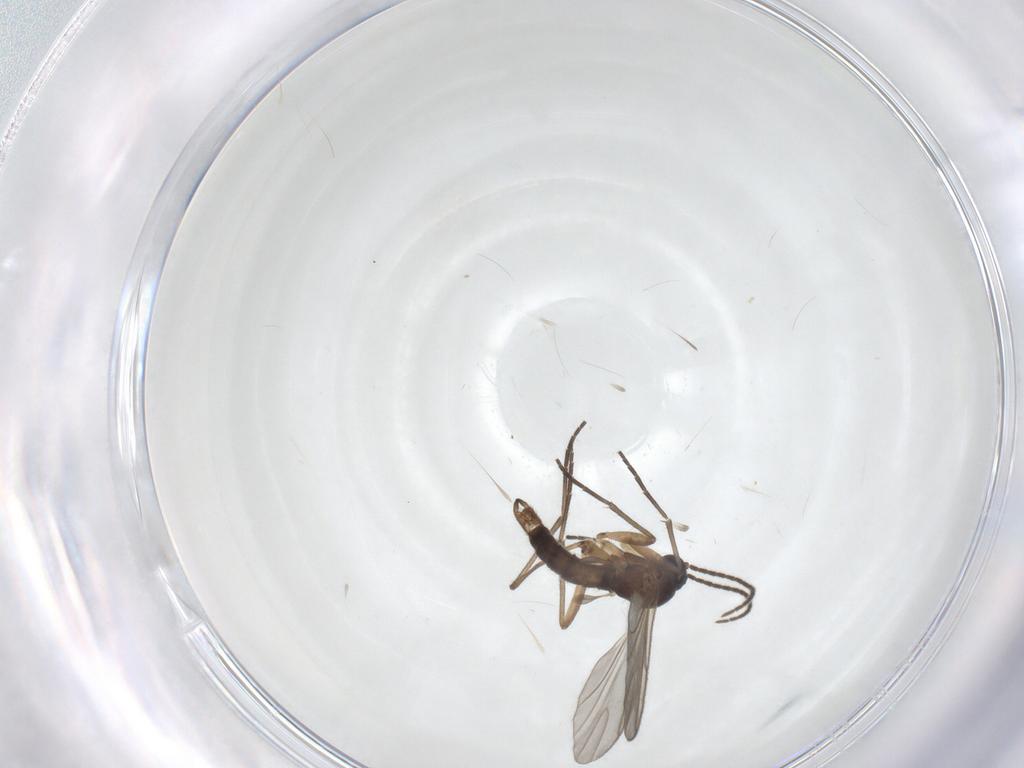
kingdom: Animalia
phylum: Arthropoda
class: Insecta
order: Diptera
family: Sciaridae
